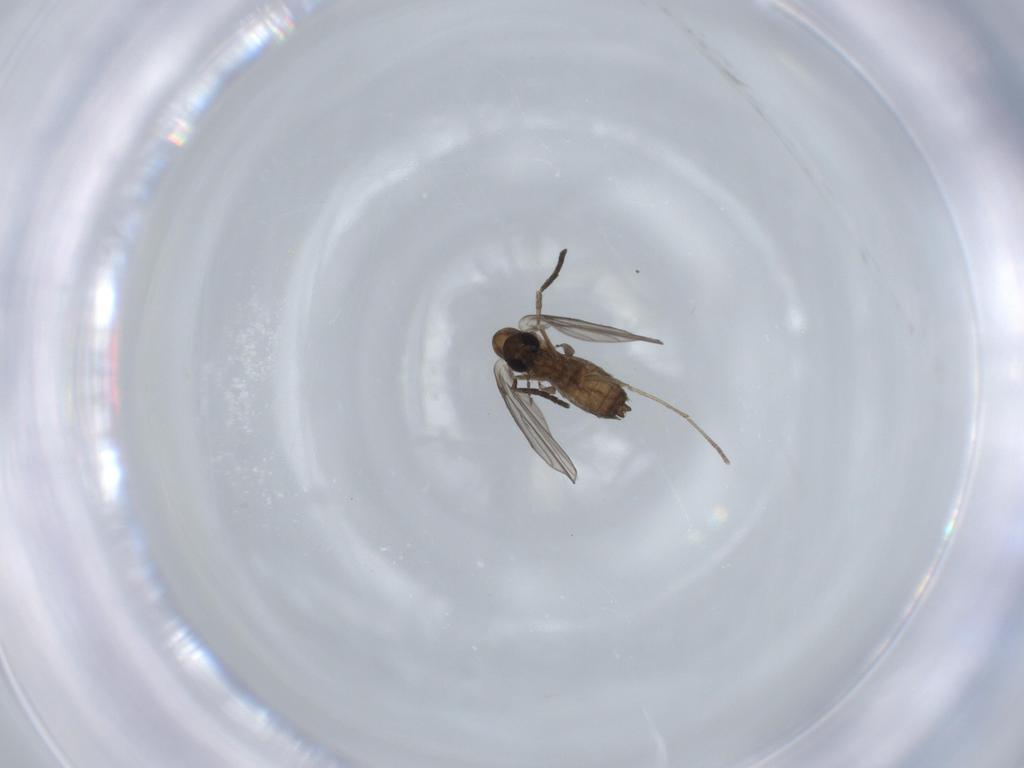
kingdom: Animalia
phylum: Arthropoda
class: Insecta
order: Diptera
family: Psychodidae
